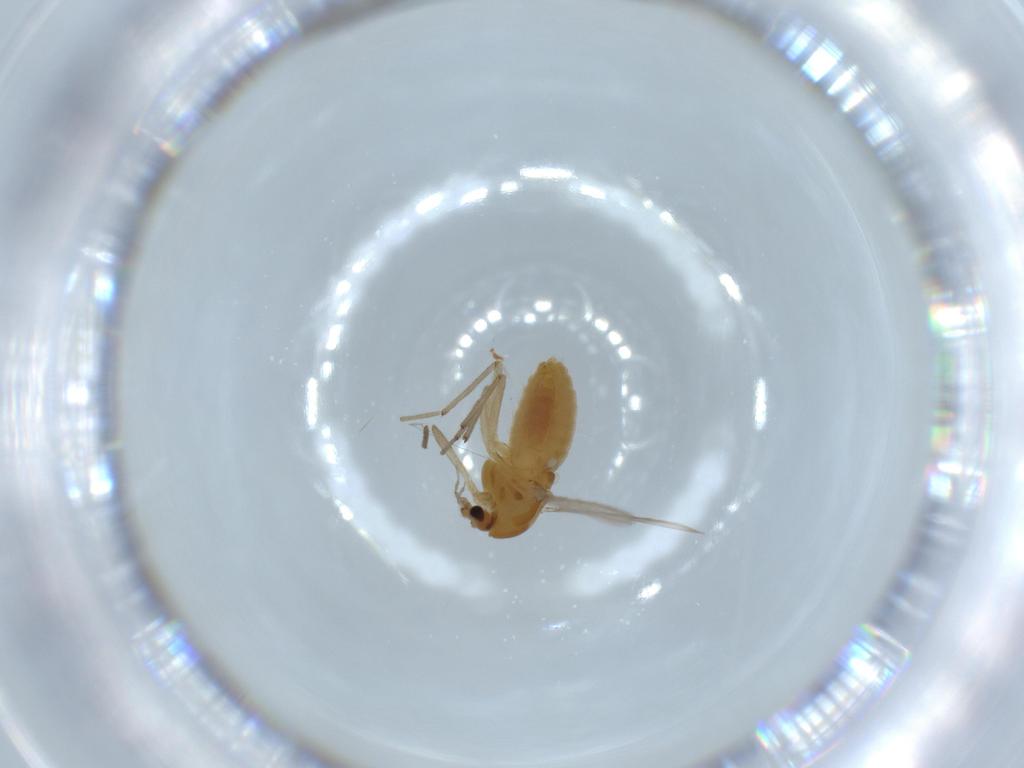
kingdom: Animalia
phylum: Arthropoda
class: Insecta
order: Diptera
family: Chironomidae
